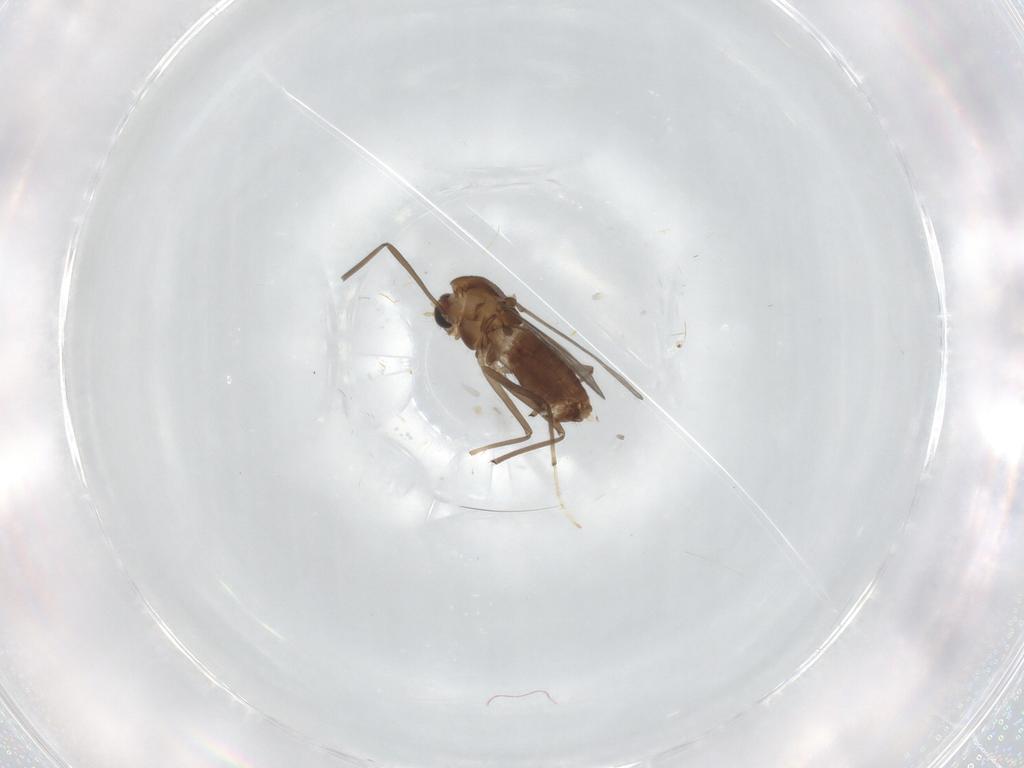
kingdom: Animalia
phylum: Arthropoda
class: Insecta
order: Diptera
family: Chironomidae
